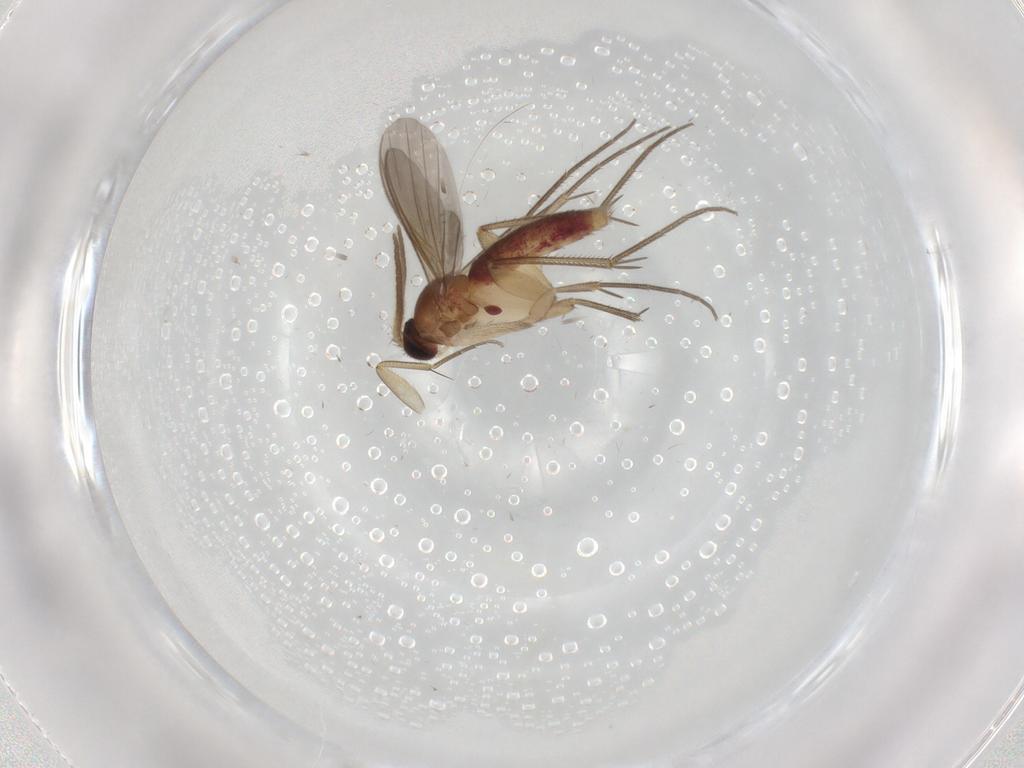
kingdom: Animalia
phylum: Arthropoda
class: Insecta
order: Diptera
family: Mycetophilidae
